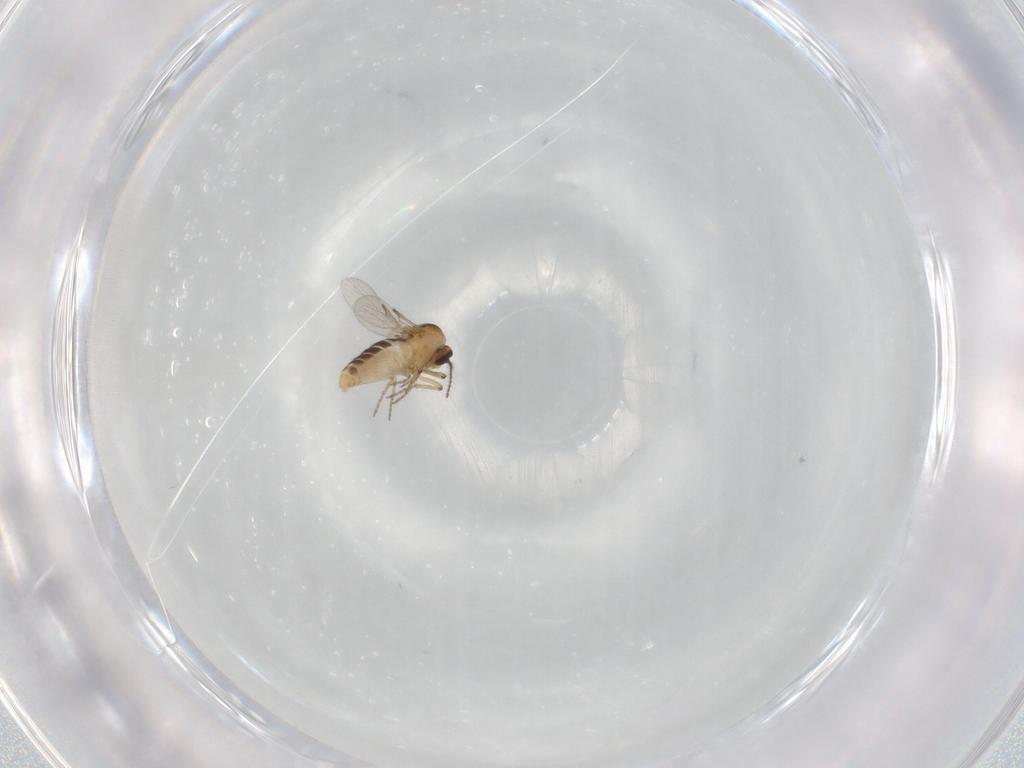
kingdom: Animalia
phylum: Arthropoda
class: Insecta
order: Diptera
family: Ceratopogonidae
